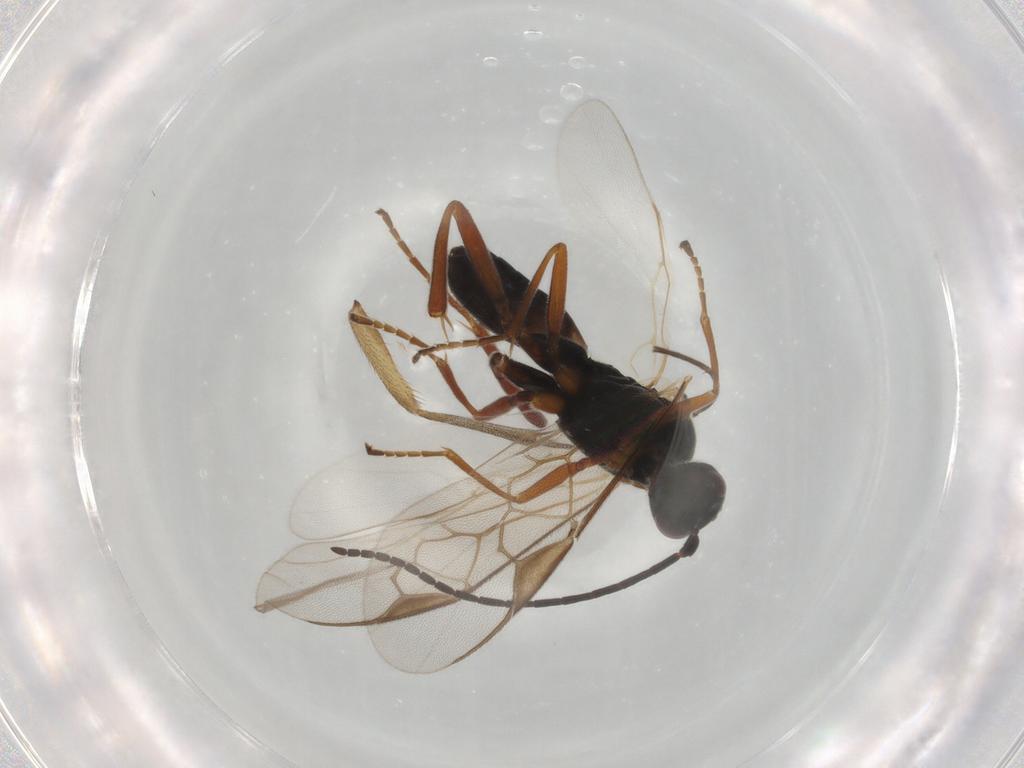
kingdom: Animalia
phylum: Arthropoda
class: Insecta
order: Hymenoptera
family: Braconidae
